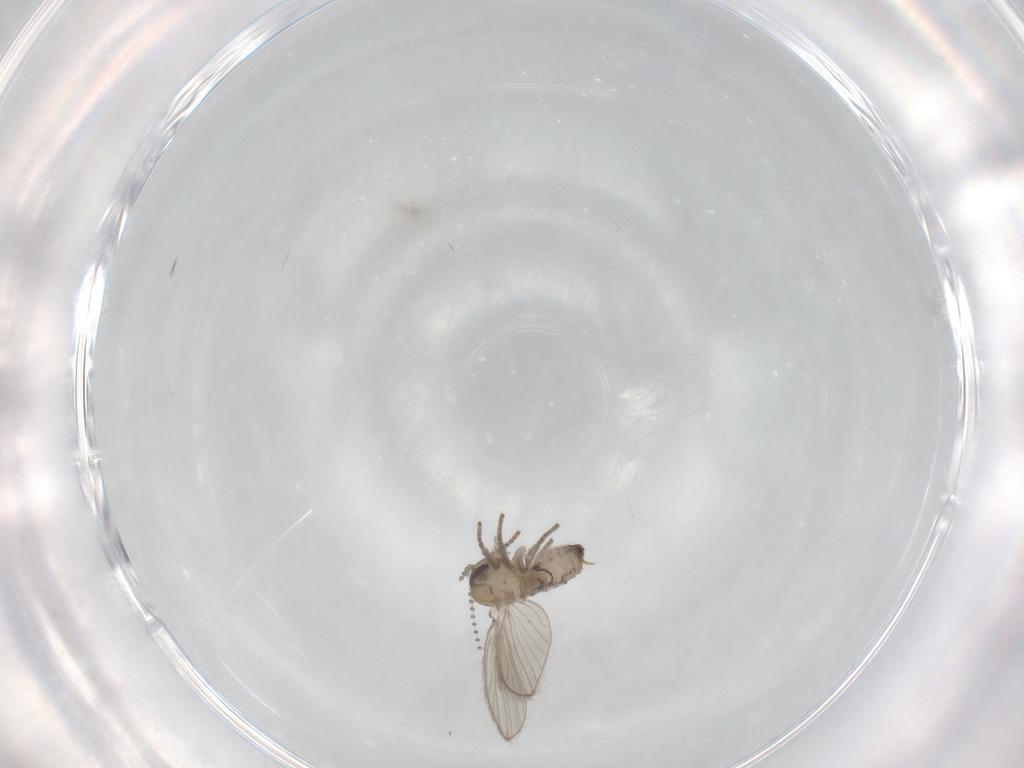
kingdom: Animalia
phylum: Arthropoda
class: Insecta
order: Diptera
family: Psychodidae
